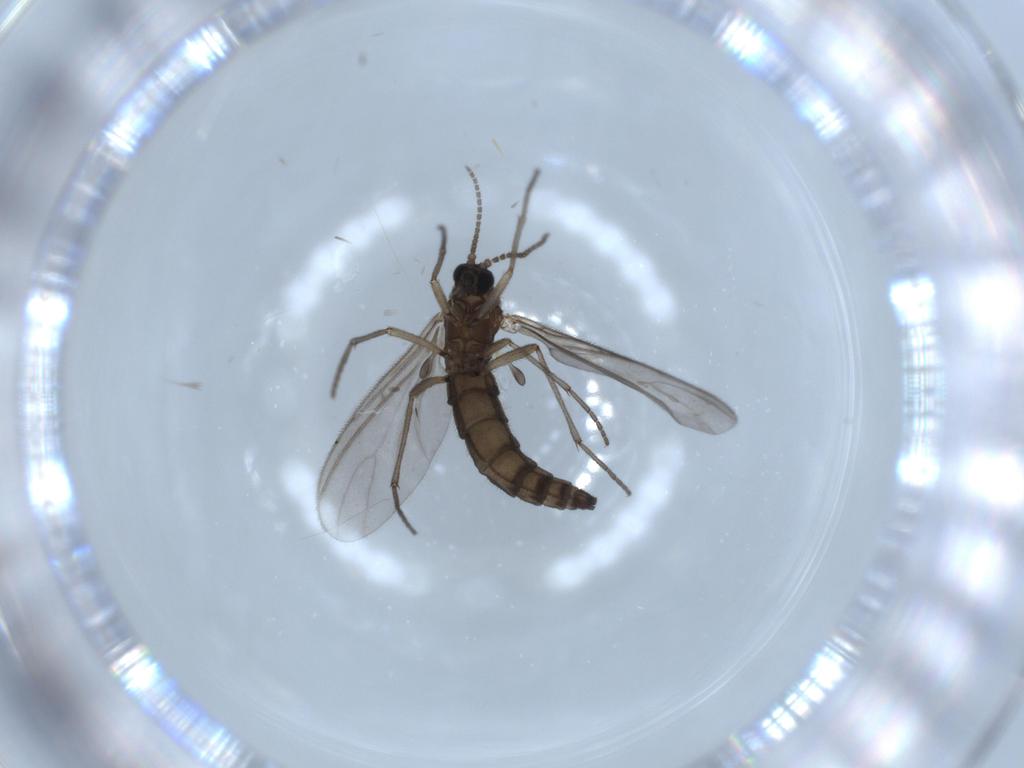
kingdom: Animalia
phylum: Arthropoda
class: Insecta
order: Diptera
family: Sciaridae
